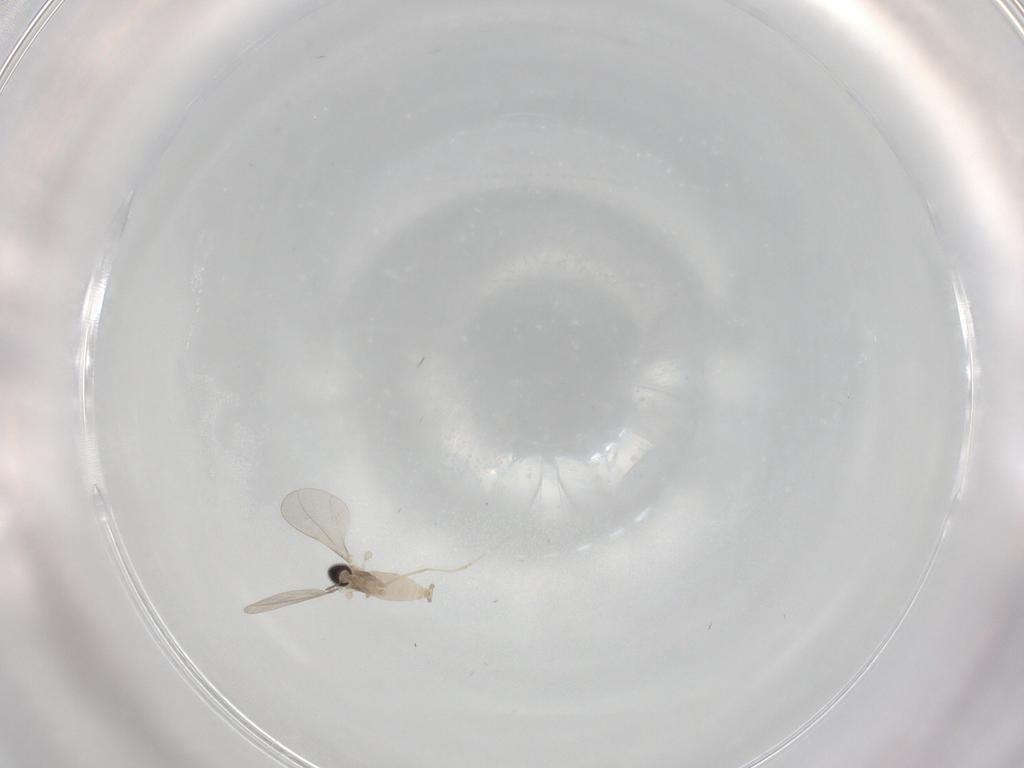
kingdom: Animalia
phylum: Arthropoda
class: Insecta
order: Diptera
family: Cecidomyiidae
